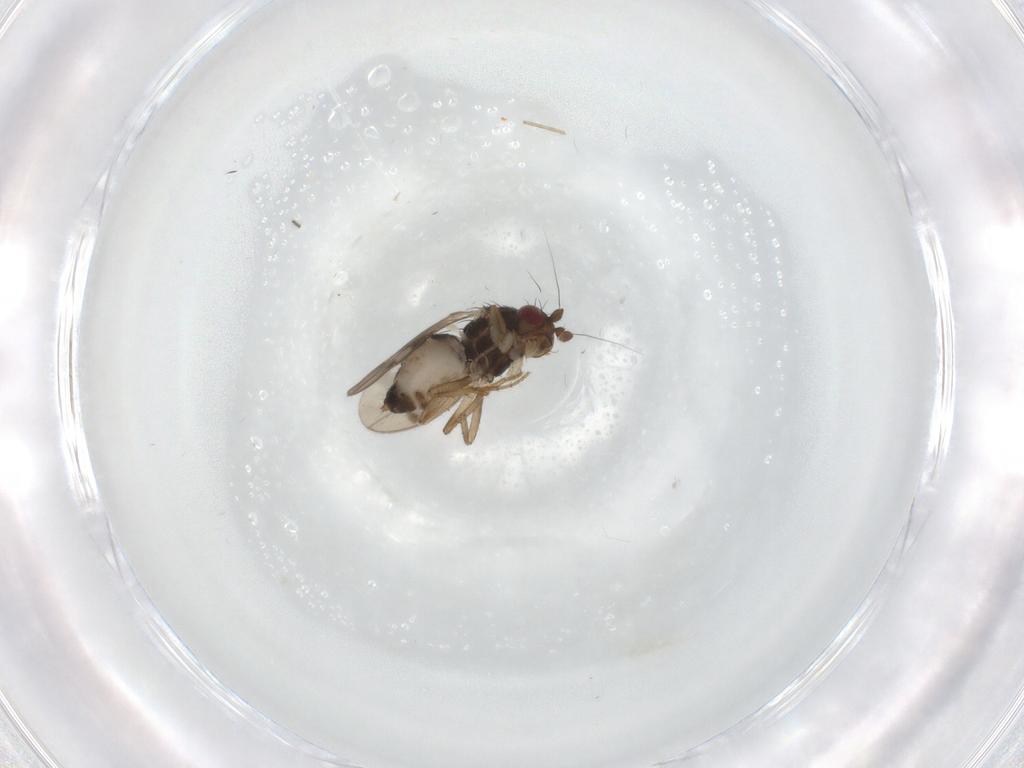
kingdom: Animalia
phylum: Arthropoda
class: Insecta
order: Diptera
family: Sphaeroceridae
